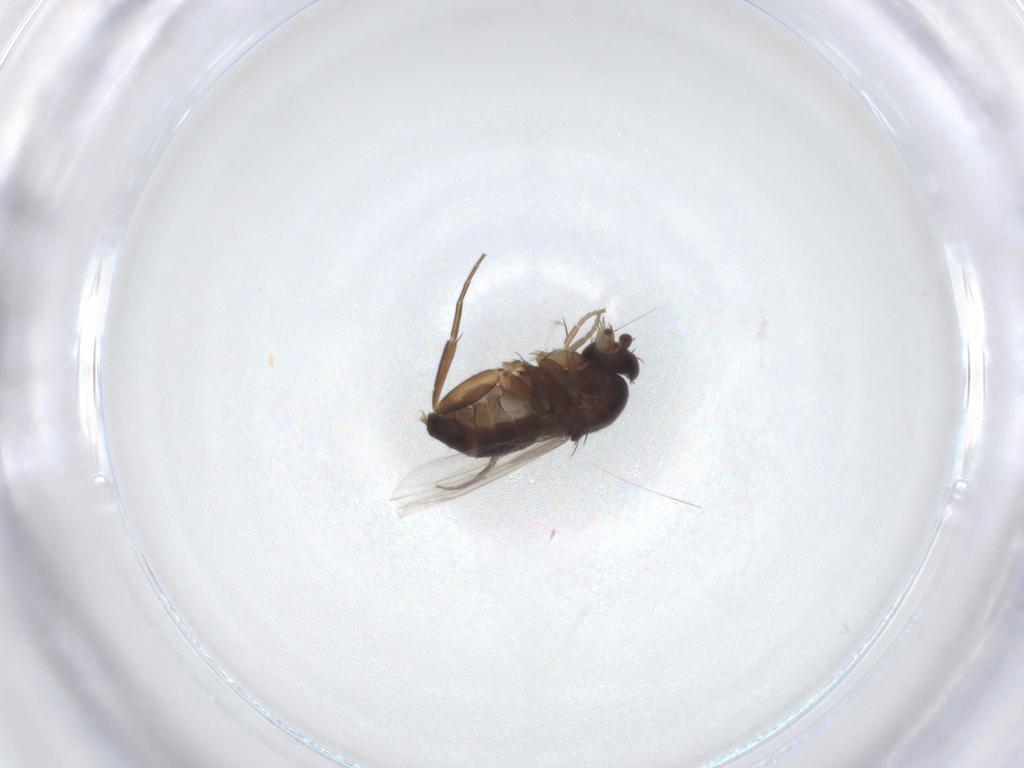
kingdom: Animalia
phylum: Arthropoda
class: Insecta
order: Diptera
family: Phoridae
